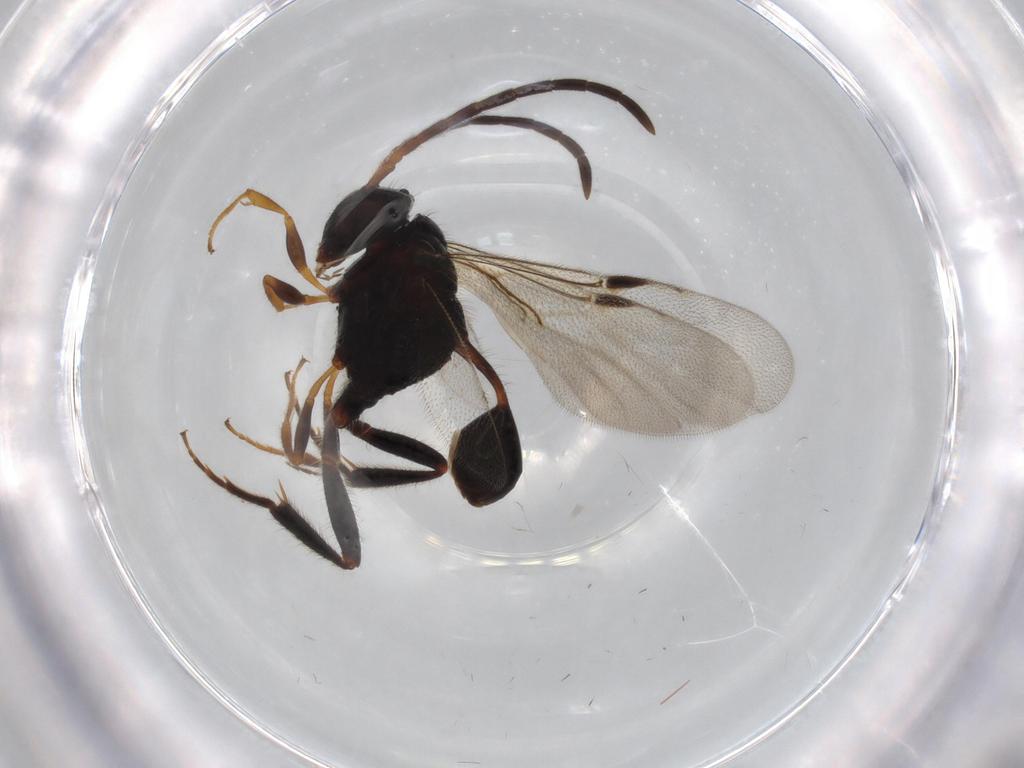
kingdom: Animalia
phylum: Arthropoda
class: Insecta
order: Hymenoptera
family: Evaniidae
